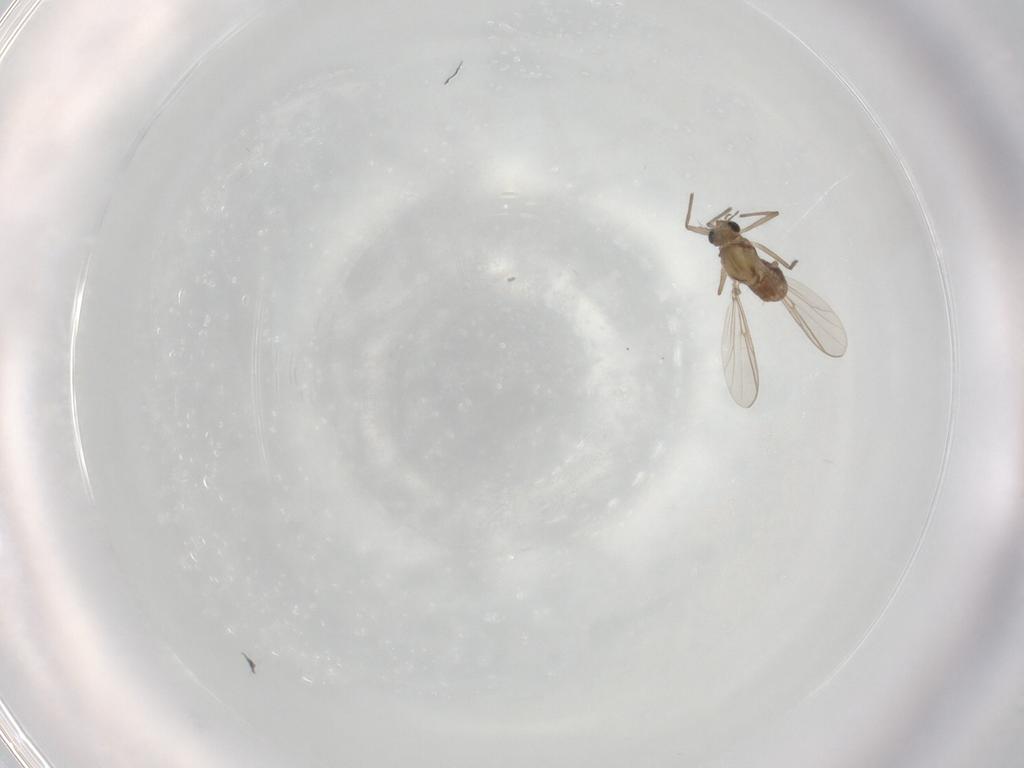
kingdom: Animalia
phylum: Arthropoda
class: Insecta
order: Diptera
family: Chironomidae
